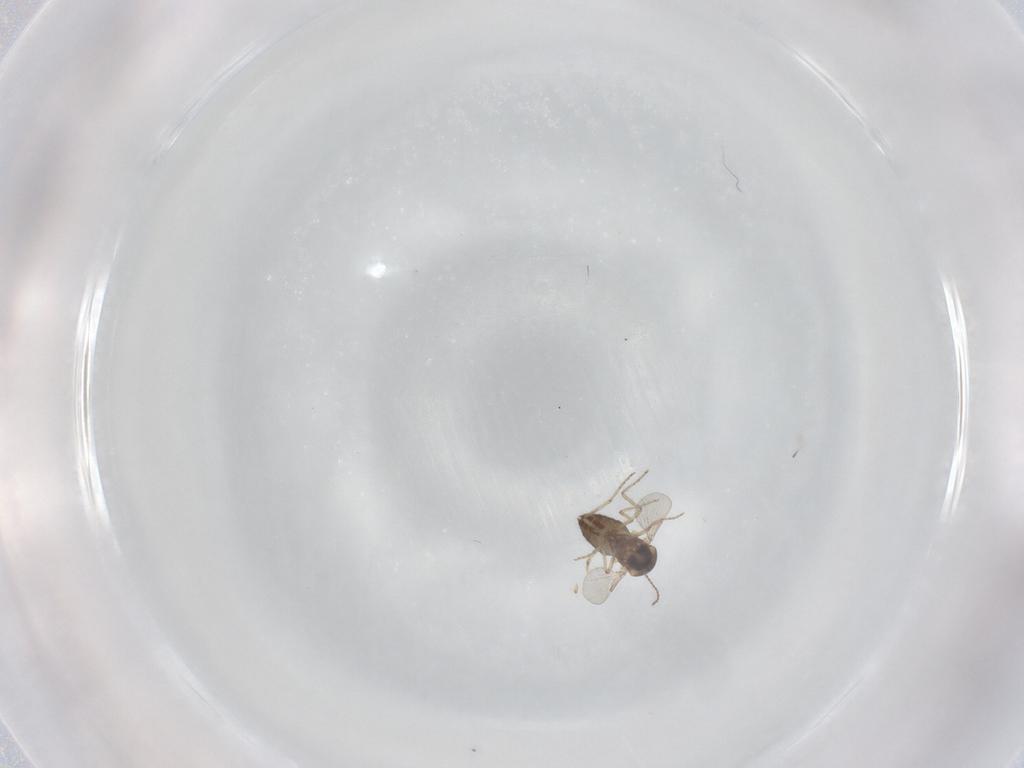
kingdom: Animalia
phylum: Arthropoda
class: Insecta
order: Diptera
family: Ceratopogonidae
